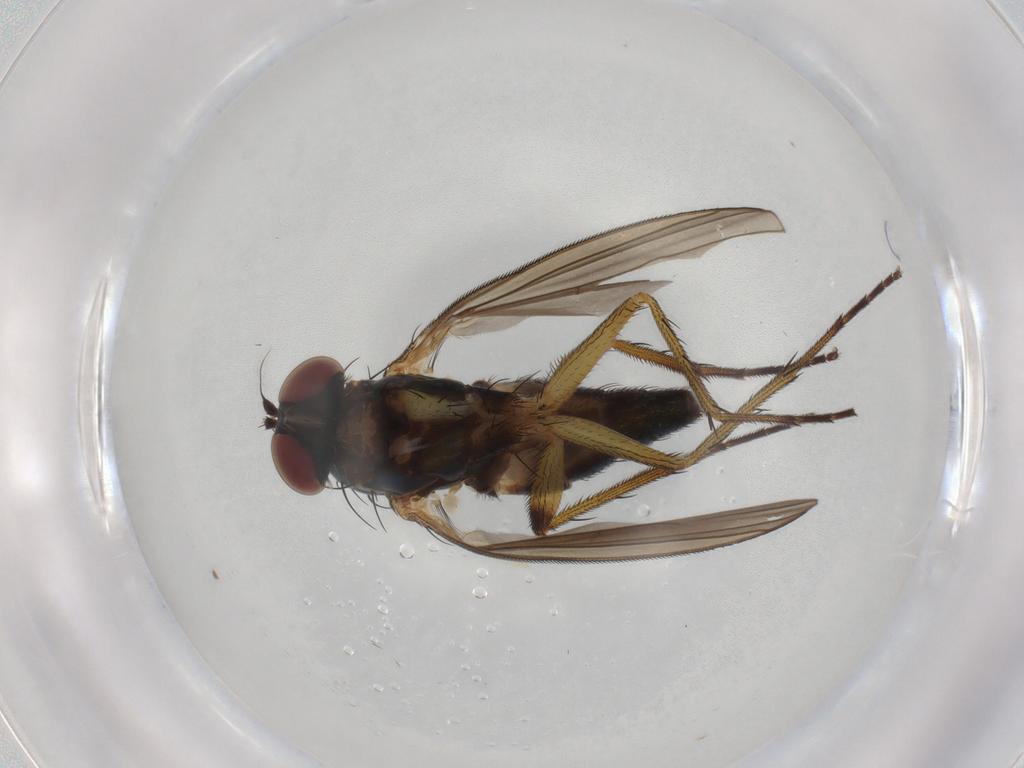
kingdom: Animalia
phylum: Arthropoda
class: Insecta
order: Diptera
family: Dolichopodidae
